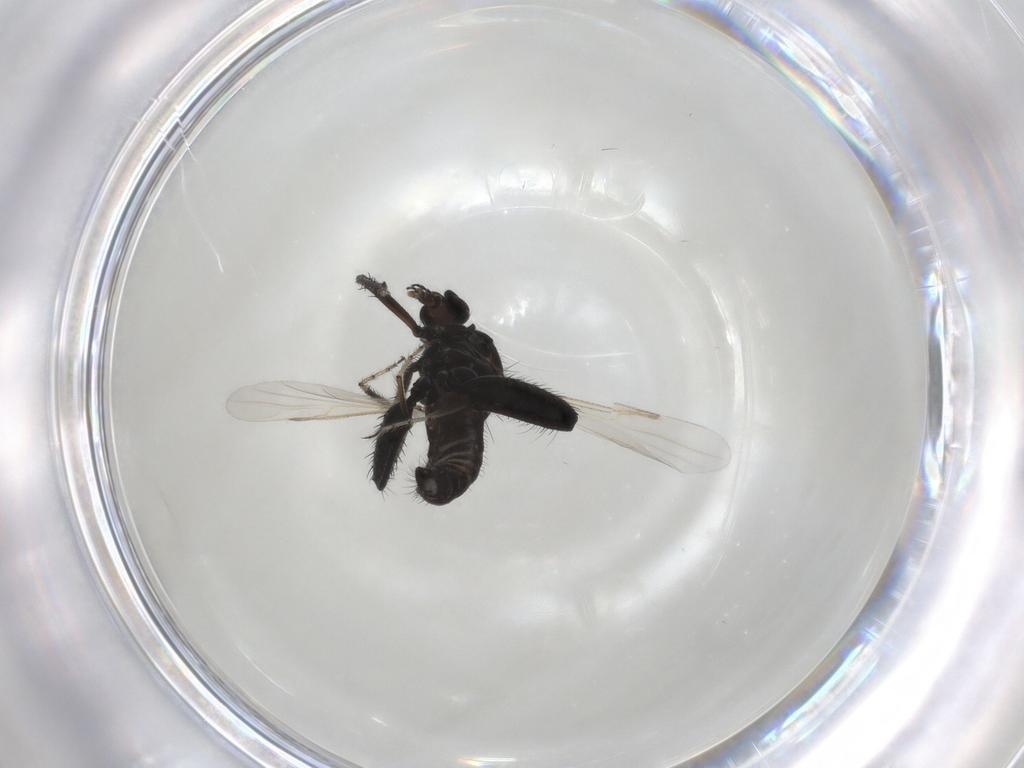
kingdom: Animalia
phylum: Arthropoda
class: Insecta
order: Diptera
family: Ceratopogonidae
